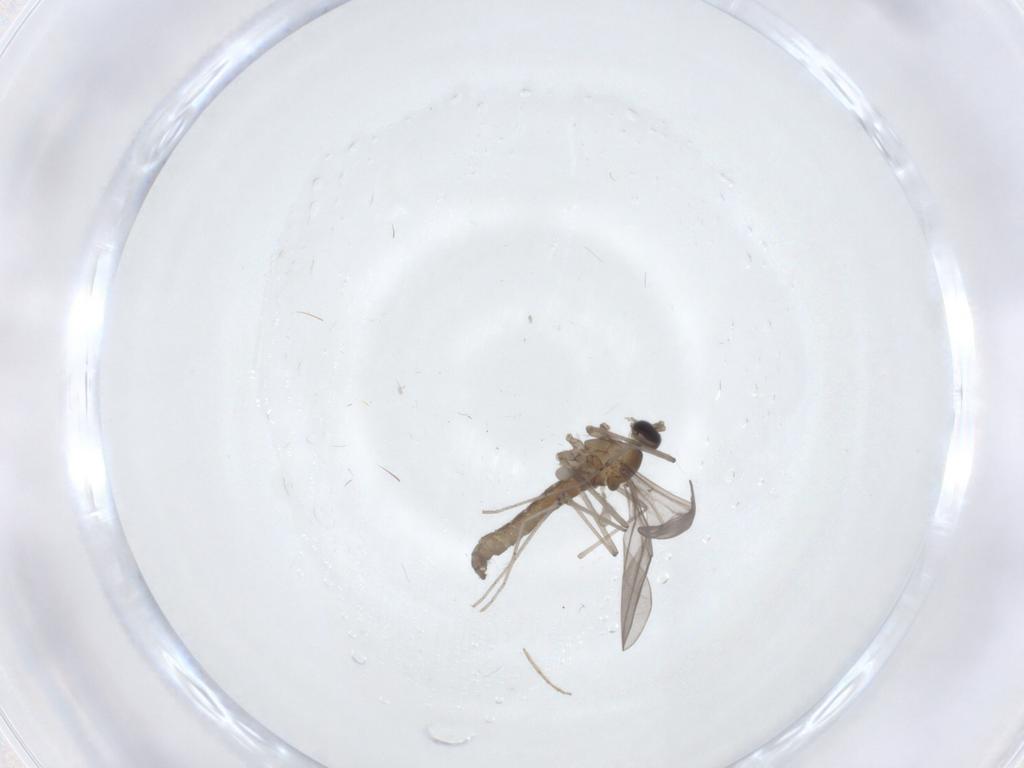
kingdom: Animalia
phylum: Arthropoda
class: Insecta
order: Diptera
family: Cecidomyiidae
